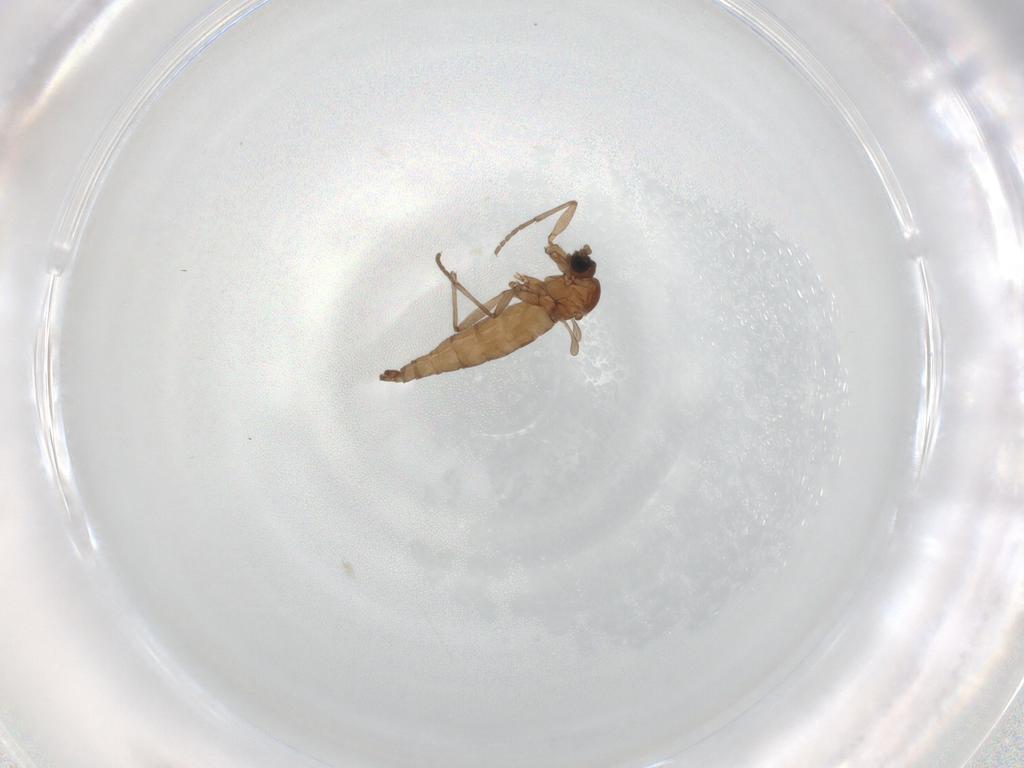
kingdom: Animalia
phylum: Arthropoda
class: Insecta
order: Diptera
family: Sciaridae
